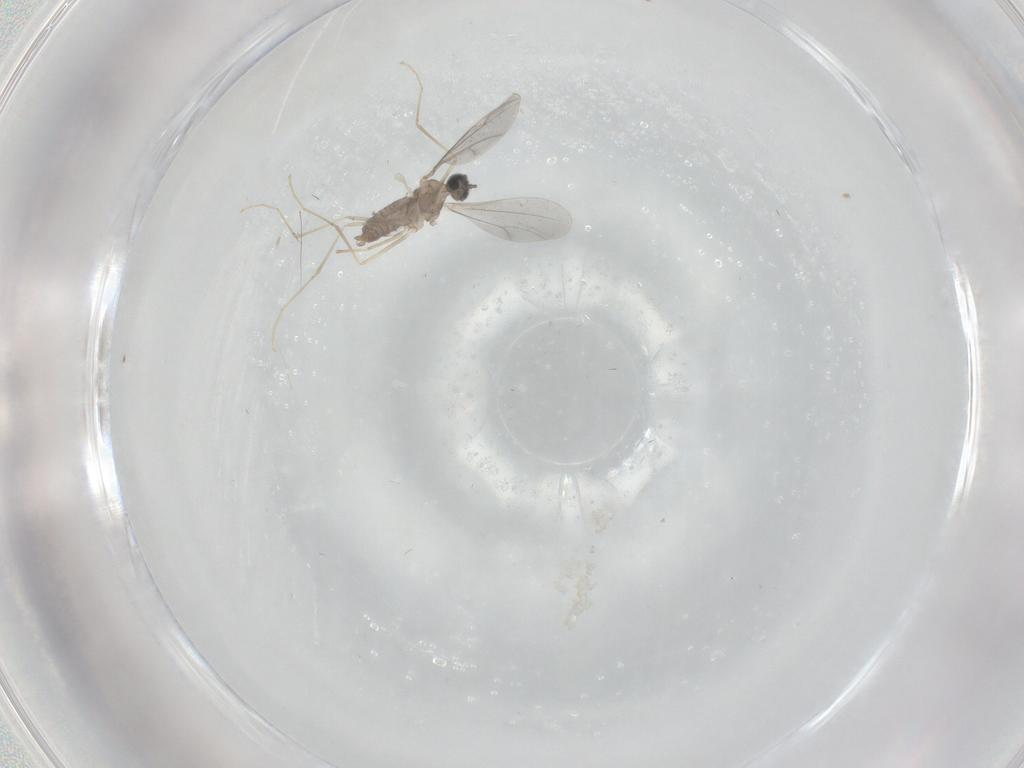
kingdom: Animalia
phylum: Arthropoda
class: Insecta
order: Diptera
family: Cecidomyiidae
